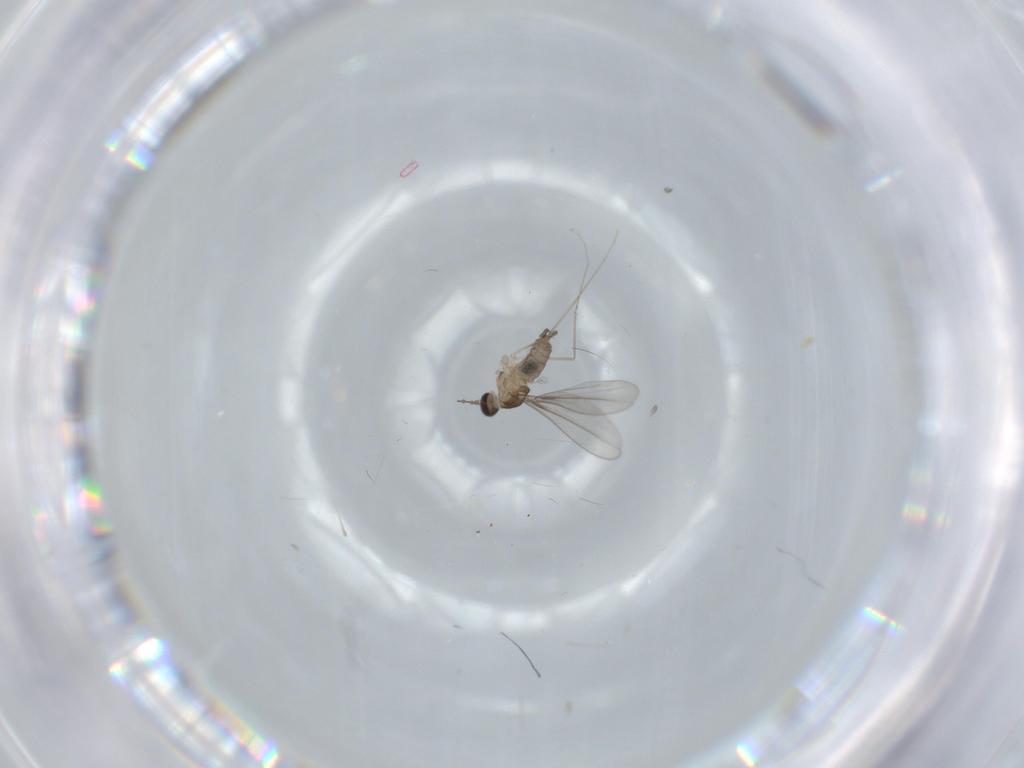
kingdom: Animalia
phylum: Arthropoda
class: Insecta
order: Diptera
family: Cecidomyiidae
